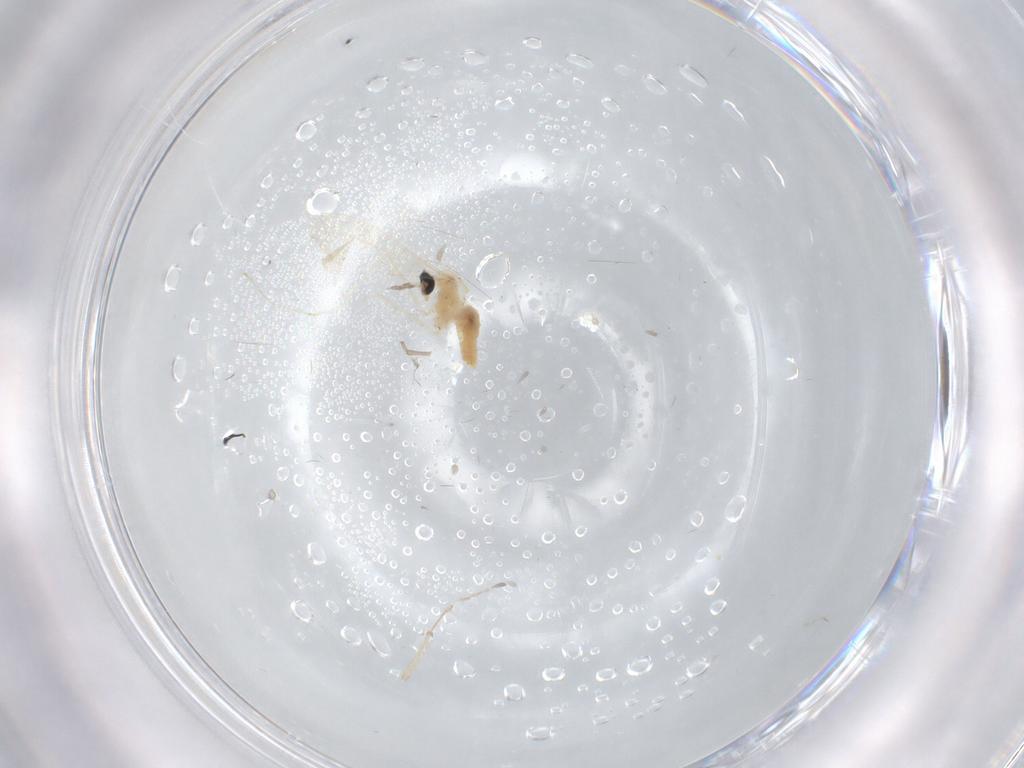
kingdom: Animalia
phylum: Arthropoda
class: Insecta
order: Diptera
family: Cecidomyiidae
